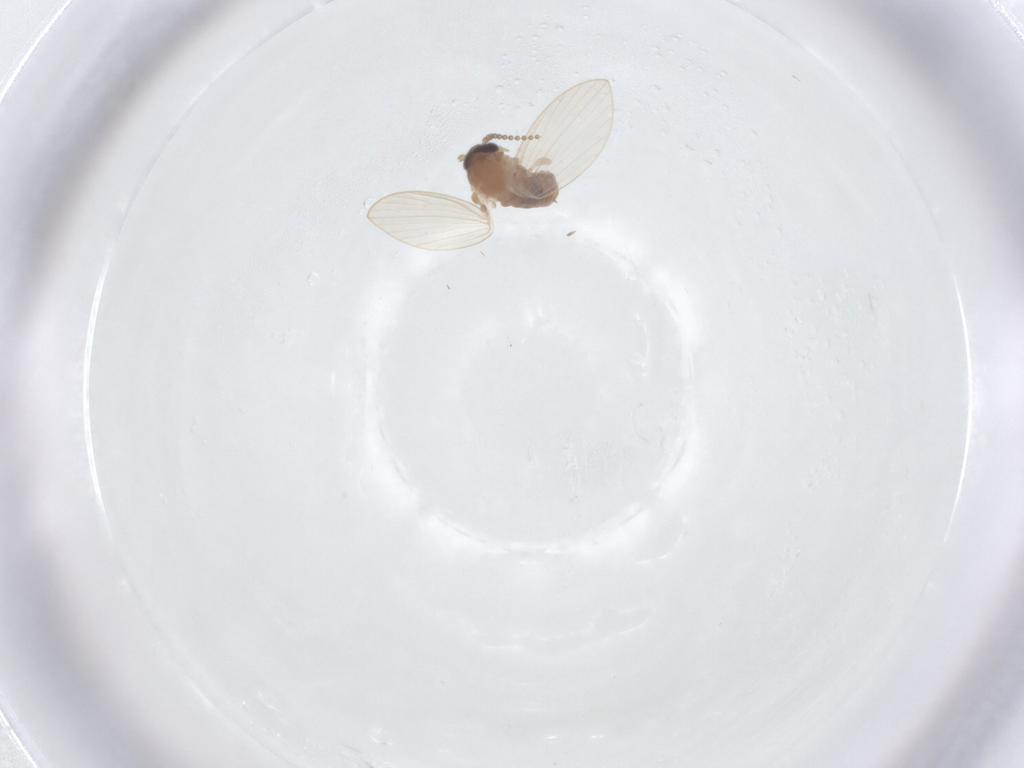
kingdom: Animalia
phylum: Arthropoda
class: Insecta
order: Diptera
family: Psychodidae
